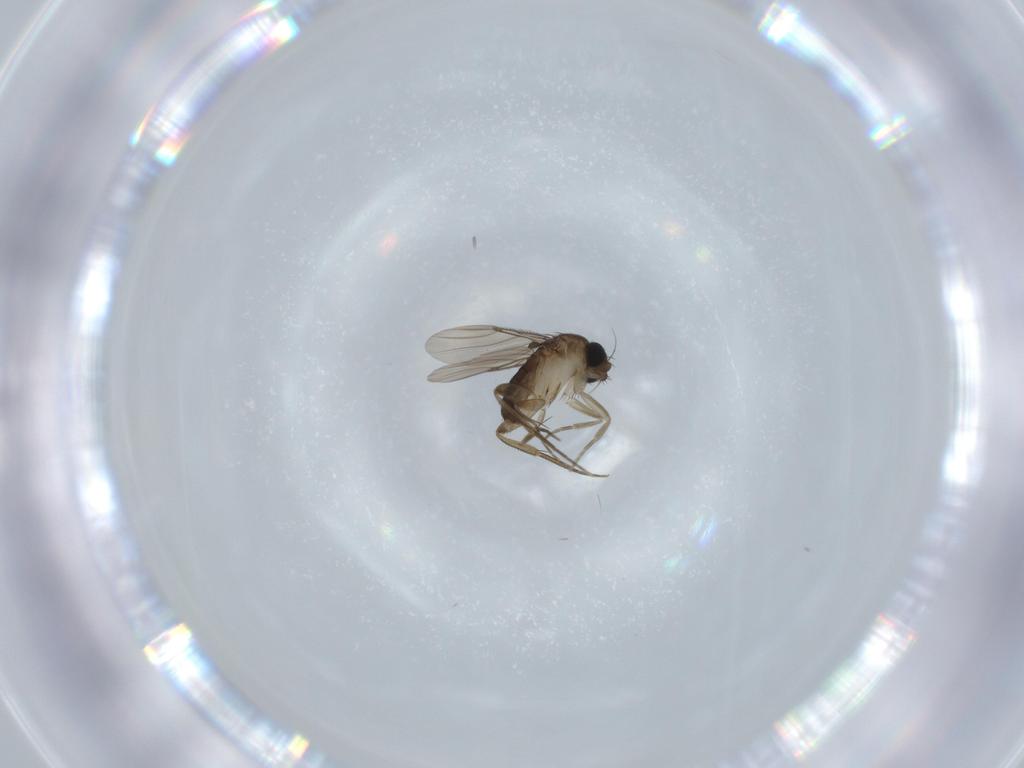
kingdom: Animalia
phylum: Arthropoda
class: Insecta
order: Diptera
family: Phoridae
